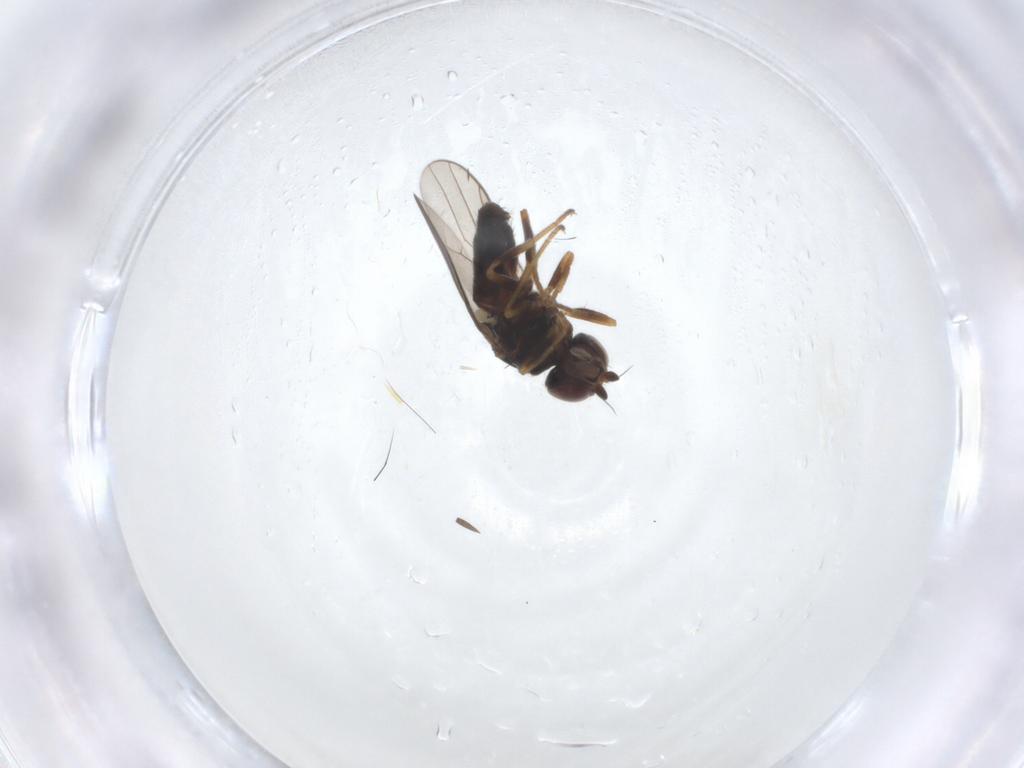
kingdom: Animalia
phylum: Arthropoda
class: Insecta
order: Diptera
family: Chloropidae
